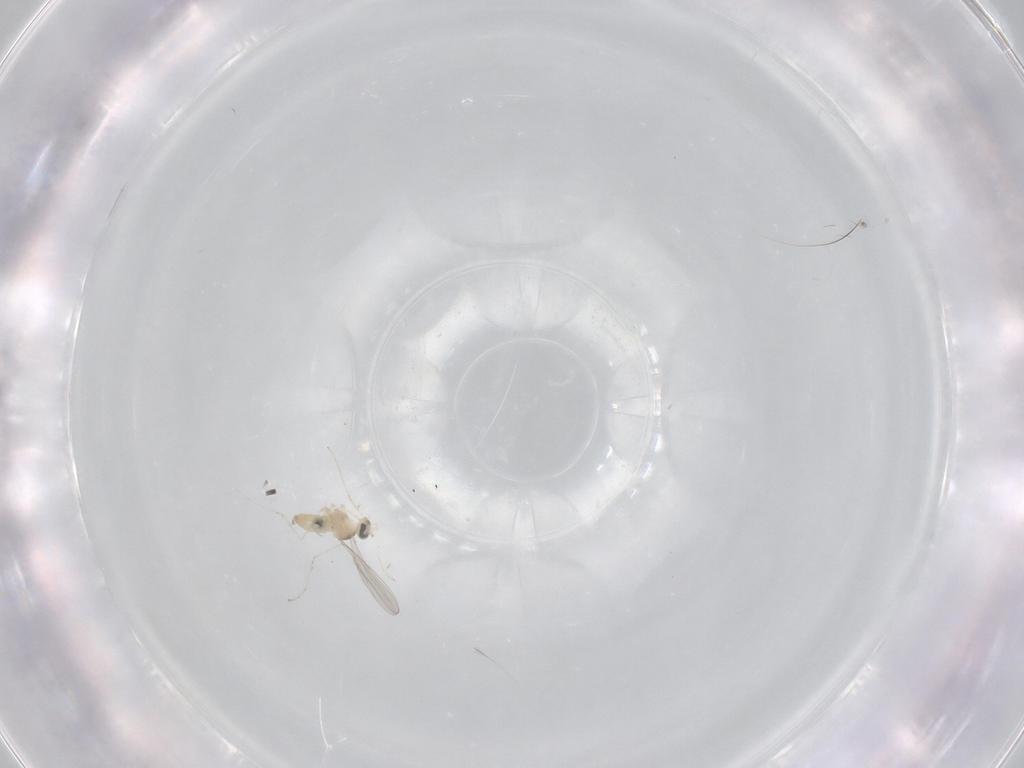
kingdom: Animalia
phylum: Arthropoda
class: Insecta
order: Diptera
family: Cecidomyiidae
